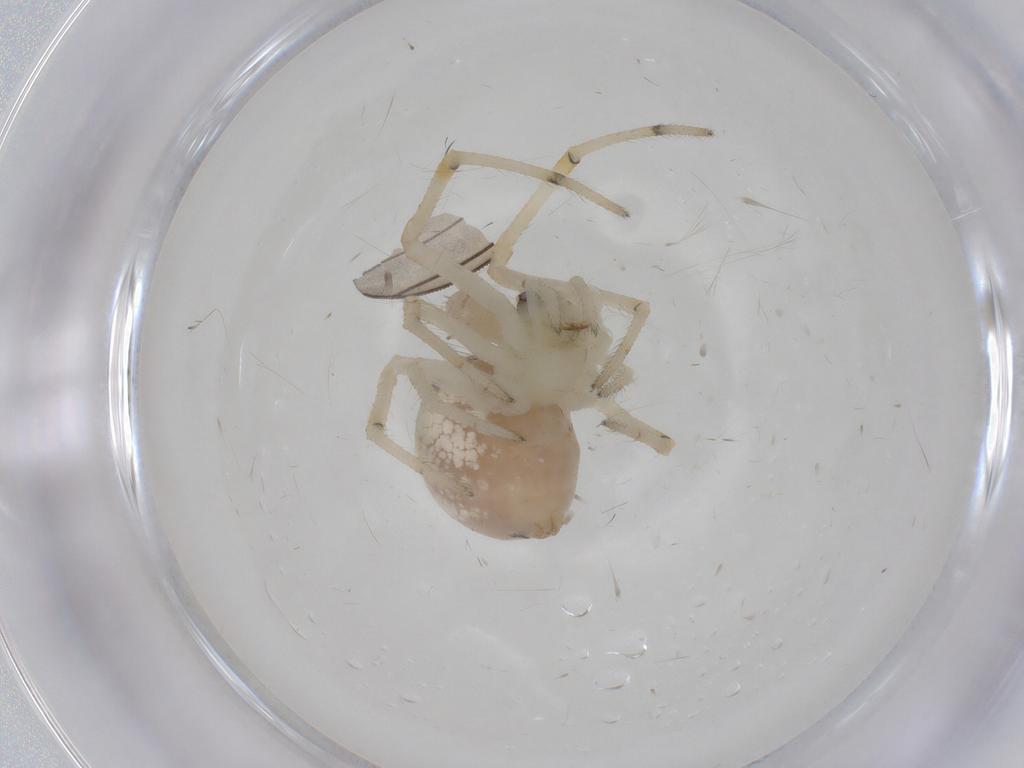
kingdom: Animalia
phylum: Arthropoda
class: Arachnida
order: Araneae
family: Theridiidae
